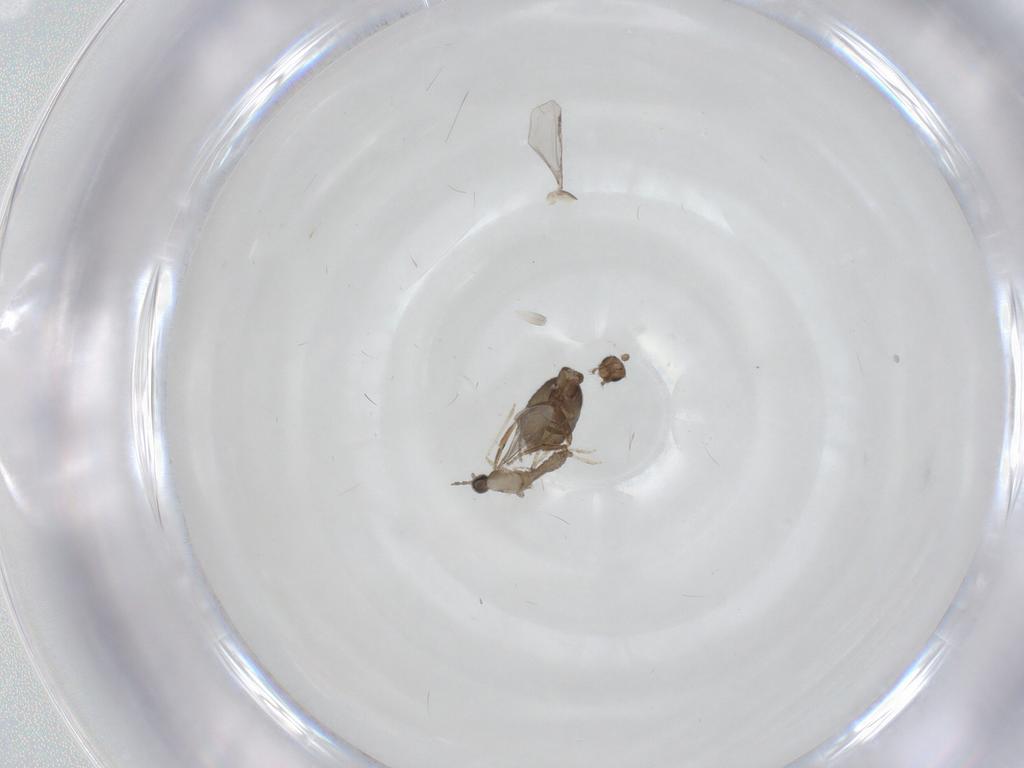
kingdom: Animalia
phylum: Arthropoda
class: Insecta
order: Diptera
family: Phoridae
